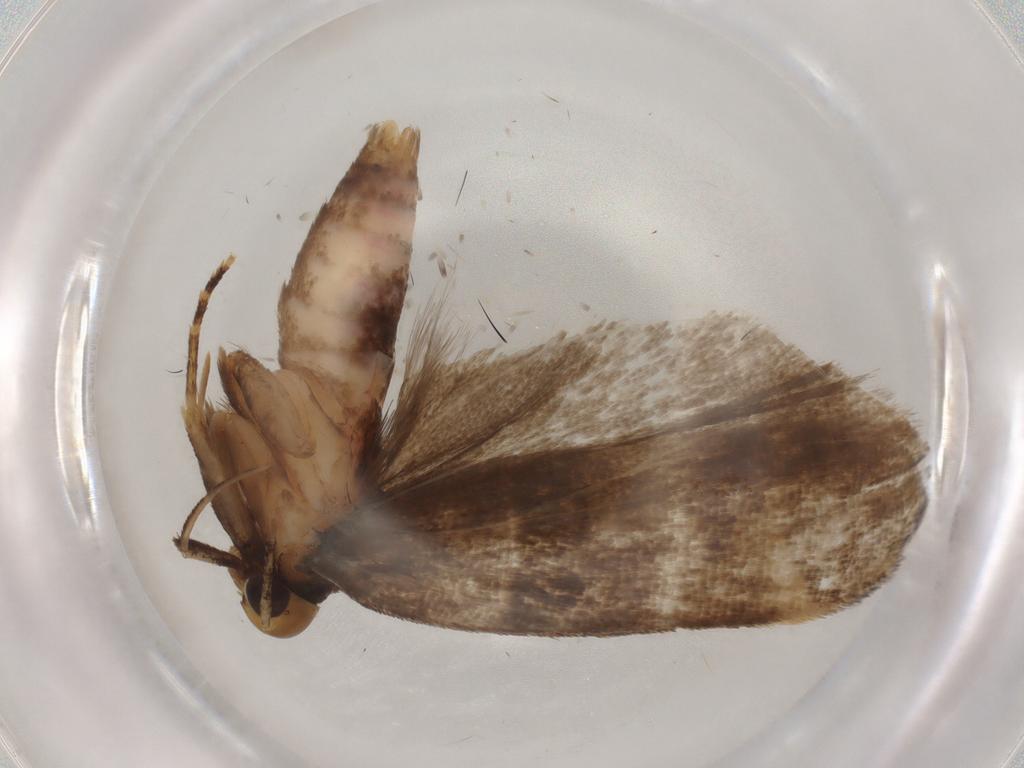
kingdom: Animalia
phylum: Arthropoda
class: Insecta
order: Lepidoptera
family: Gelechiidae
